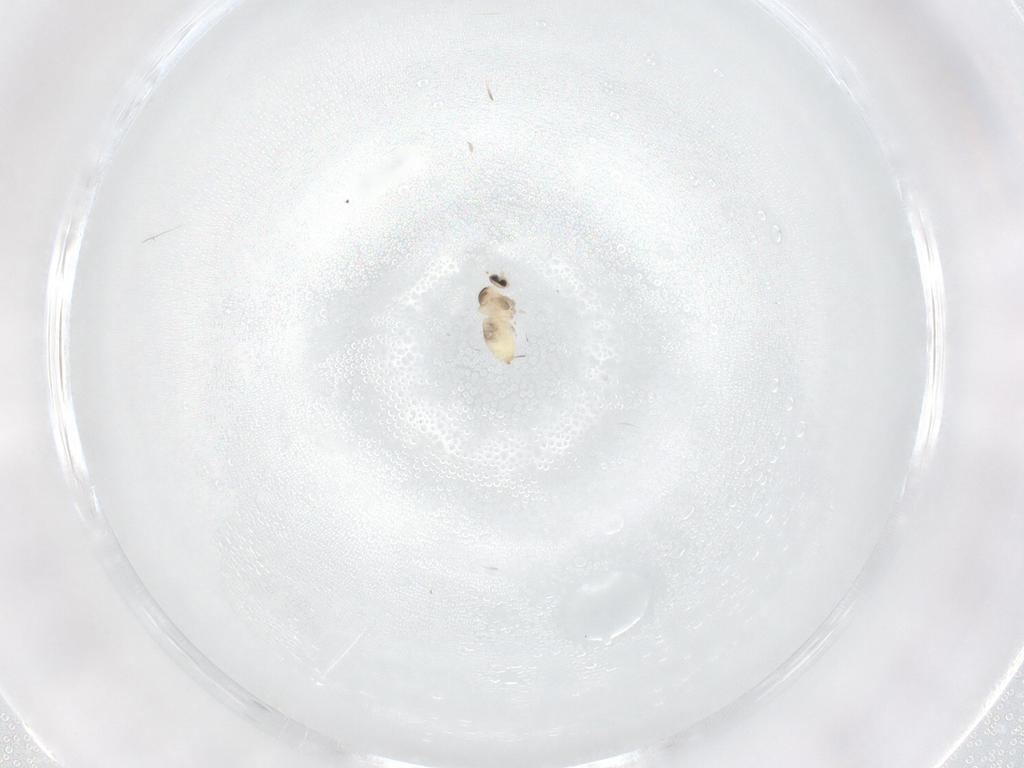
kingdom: Animalia
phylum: Arthropoda
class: Insecta
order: Diptera
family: Cecidomyiidae
